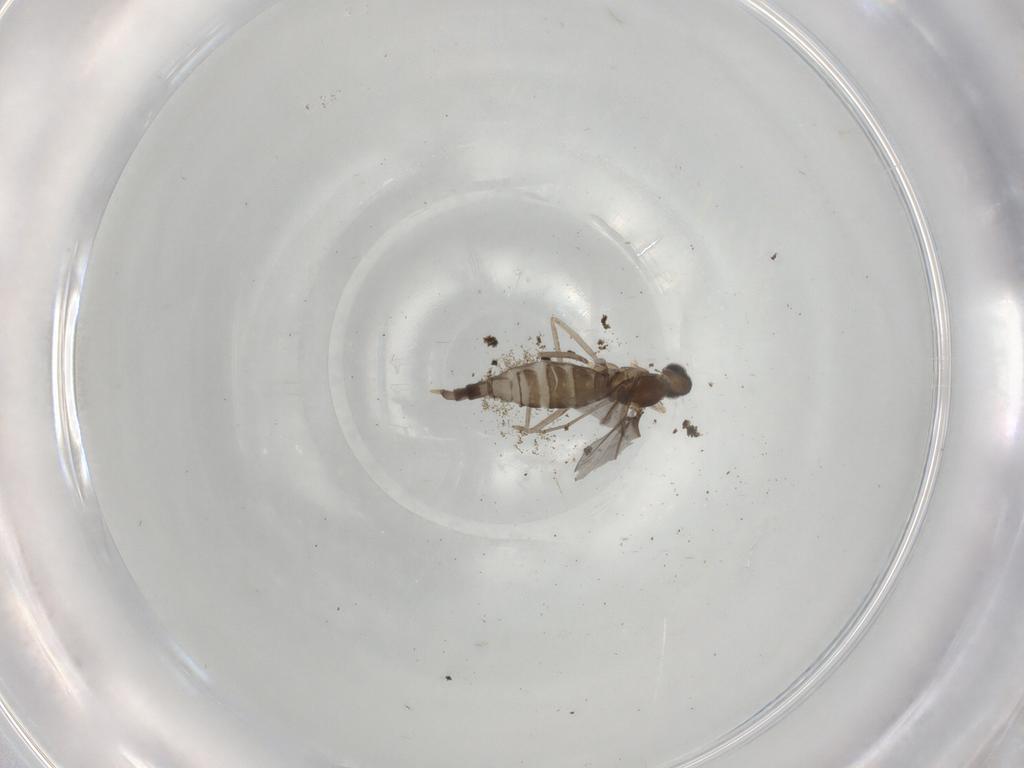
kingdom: Animalia
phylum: Arthropoda
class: Insecta
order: Diptera
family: Cecidomyiidae
